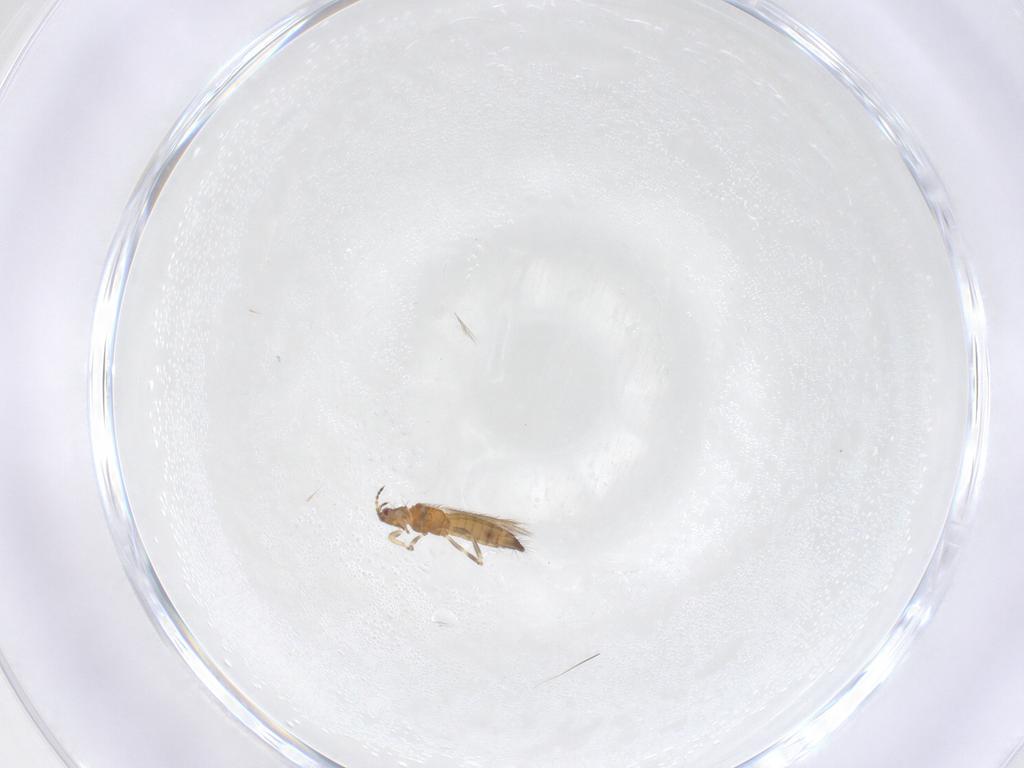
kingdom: Animalia
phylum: Arthropoda
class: Insecta
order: Thysanoptera
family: Thripidae
